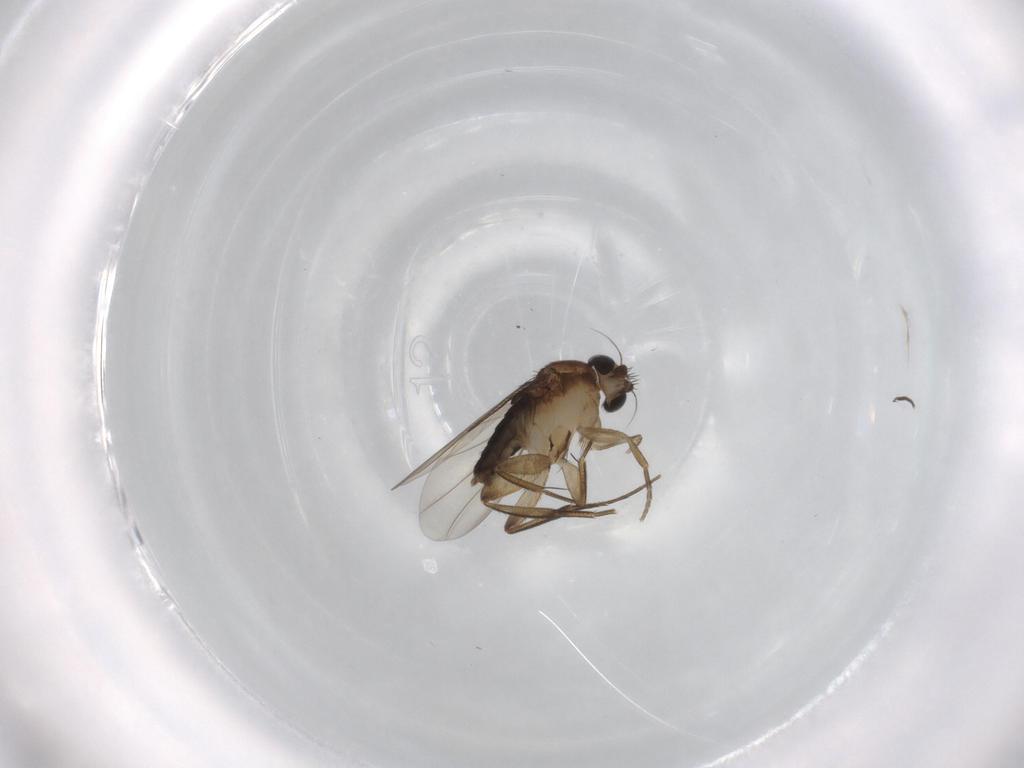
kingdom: Animalia
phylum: Arthropoda
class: Insecta
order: Diptera
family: Phoridae
